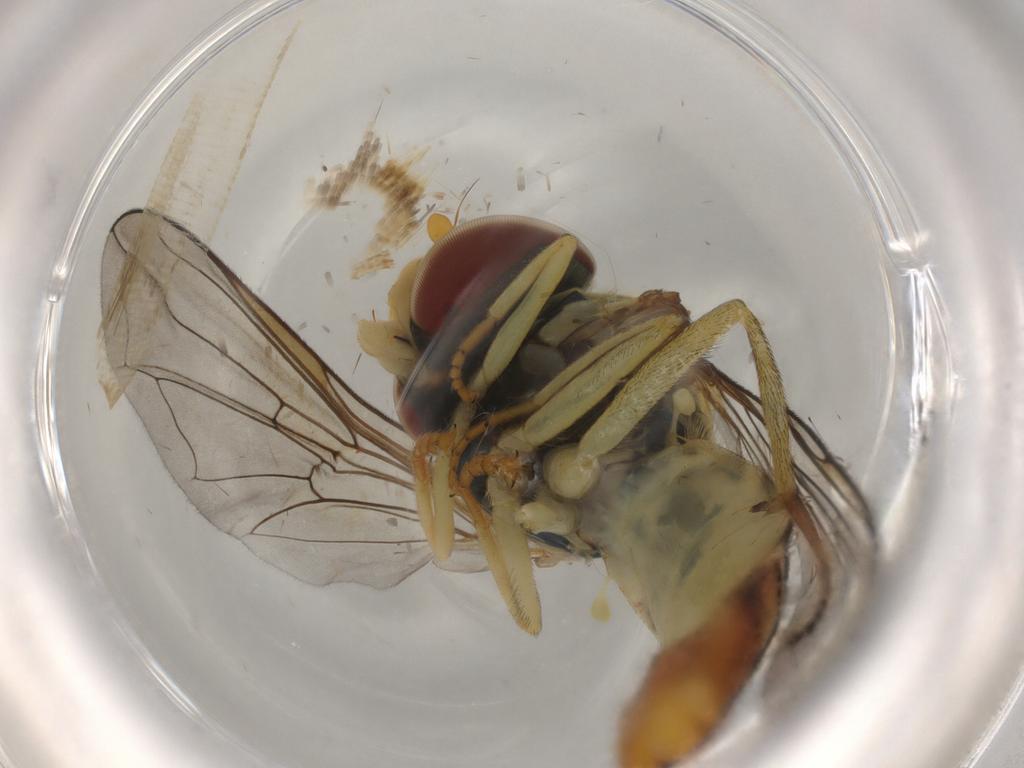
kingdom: Animalia
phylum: Arthropoda
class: Insecta
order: Diptera
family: Syrphidae
